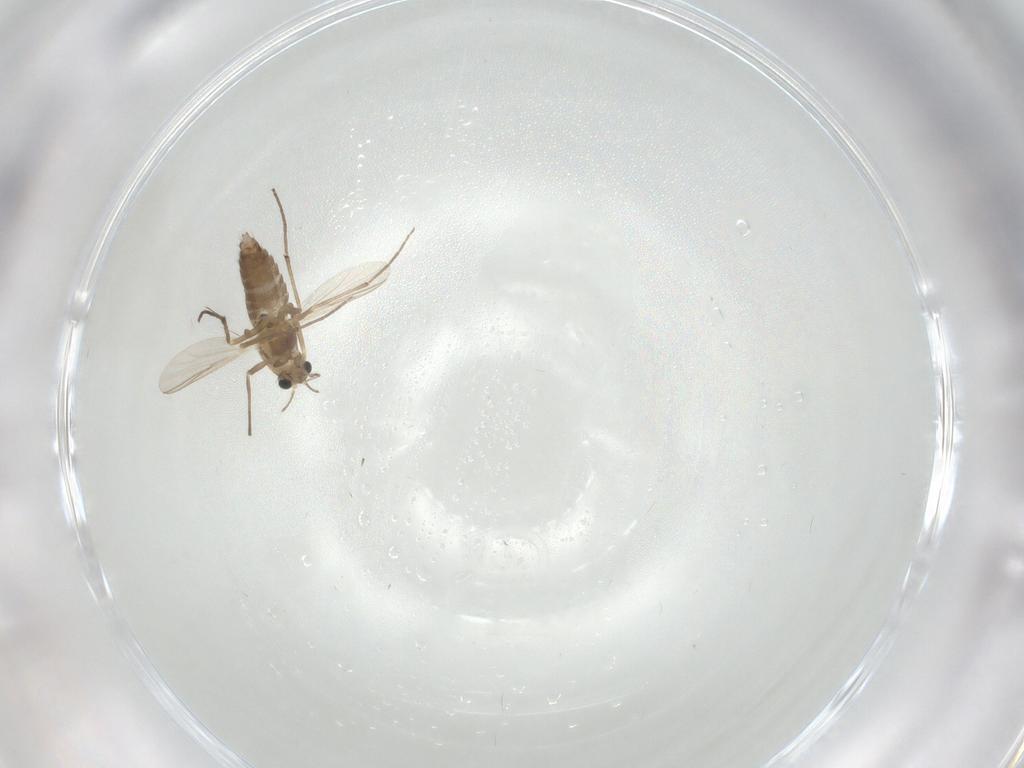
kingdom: Animalia
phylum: Arthropoda
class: Insecta
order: Diptera
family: Chironomidae
